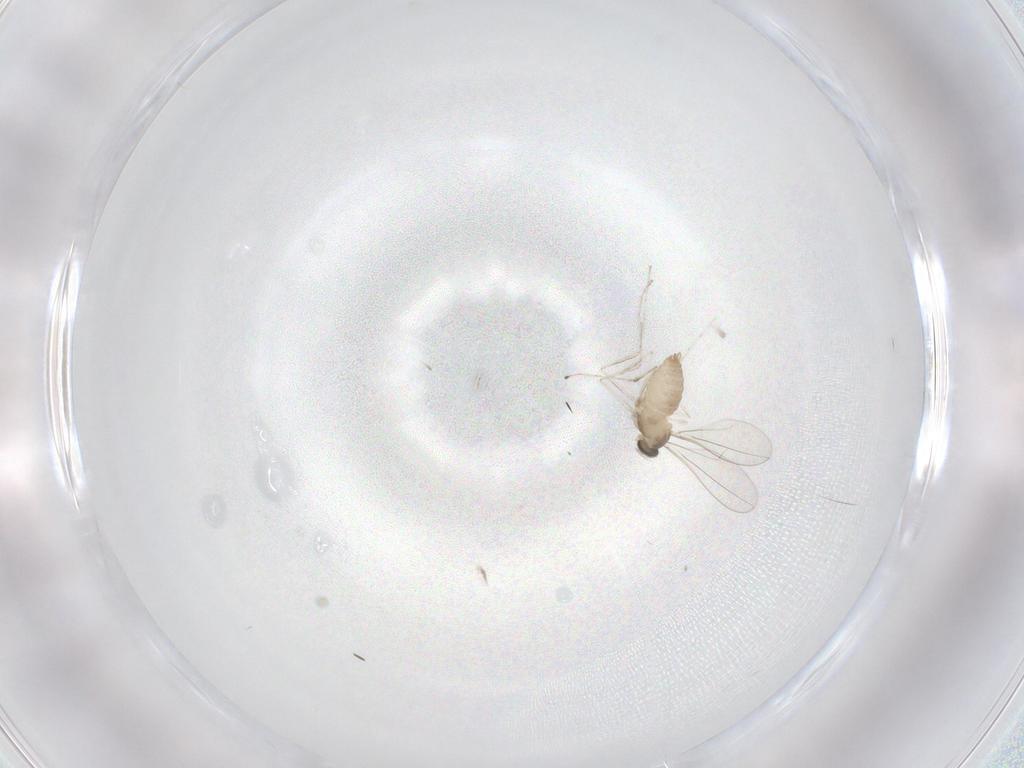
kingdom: Animalia
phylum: Arthropoda
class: Insecta
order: Diptera
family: Cecidomyiidae
